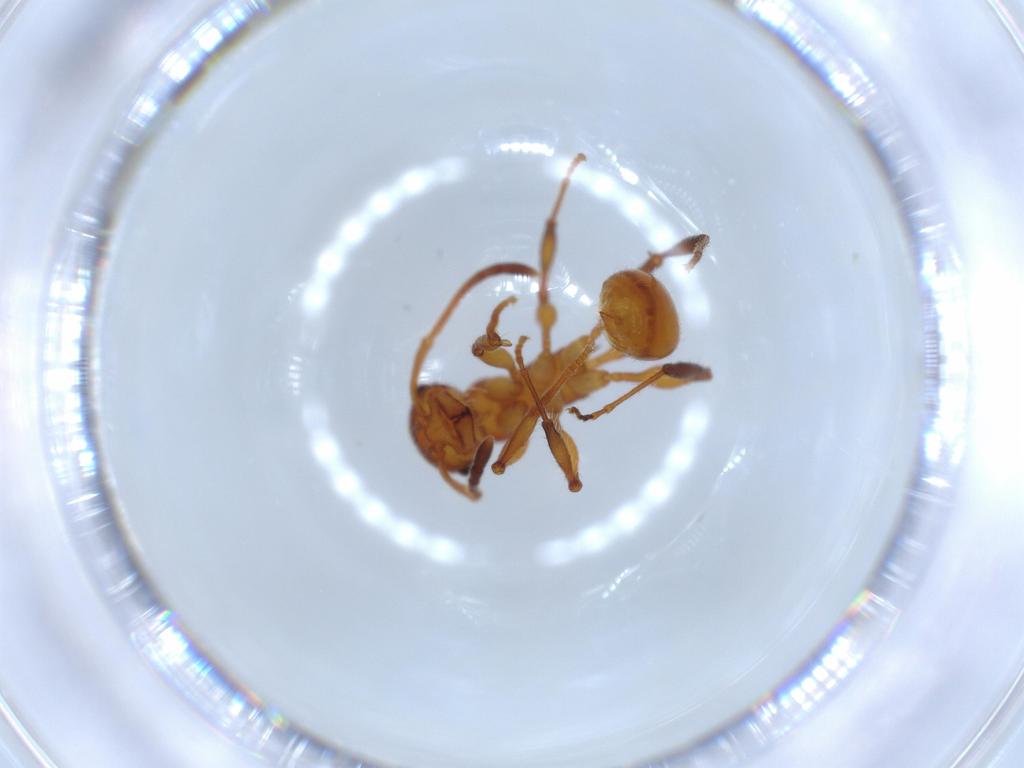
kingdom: Animalia
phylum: Arthropoda
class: Insecta
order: Hymenoptera
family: Formicidae
